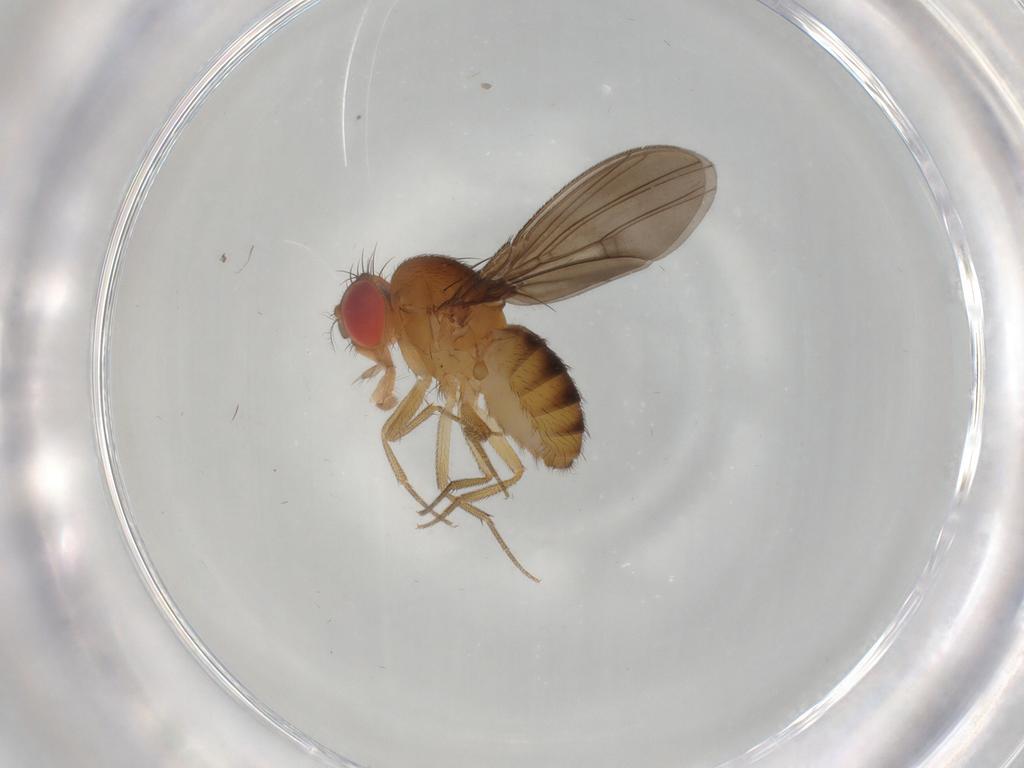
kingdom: Animalia
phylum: Arthropoda
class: Insecta
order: Diptera
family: Drosophilidae
